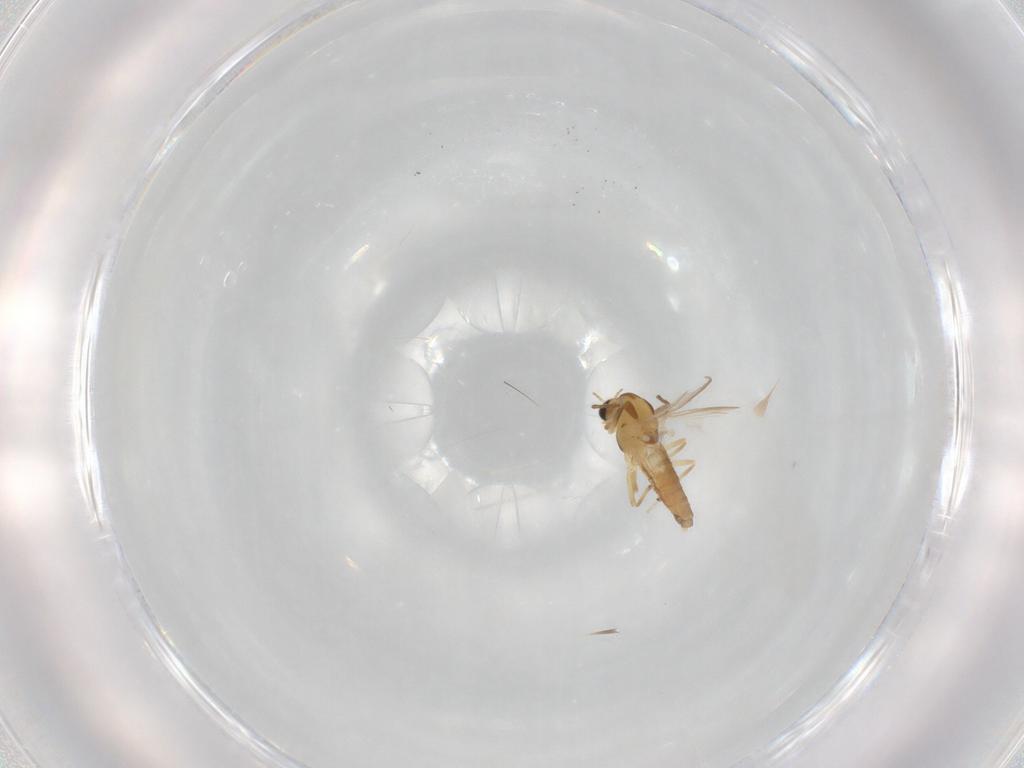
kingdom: Animalia
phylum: Arthropoda
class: Insecta
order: Diptera
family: Chironomidae
